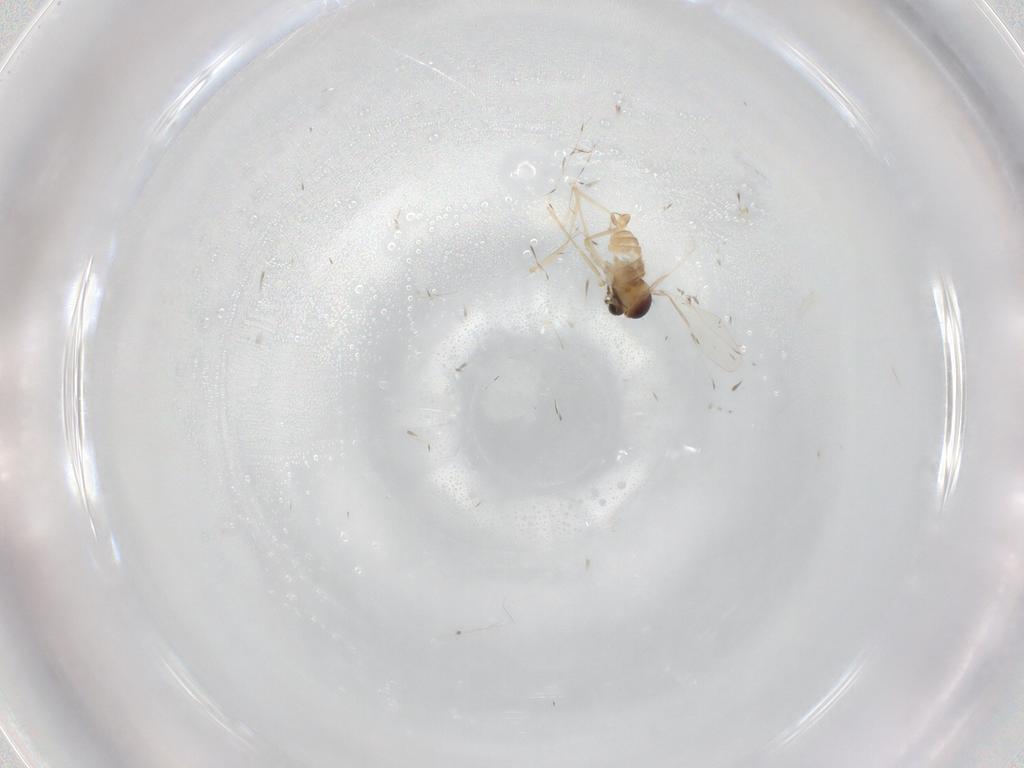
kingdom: Animalia
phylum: Arthropoda
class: Insecta
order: Diptera
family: Cecidomyiidae
